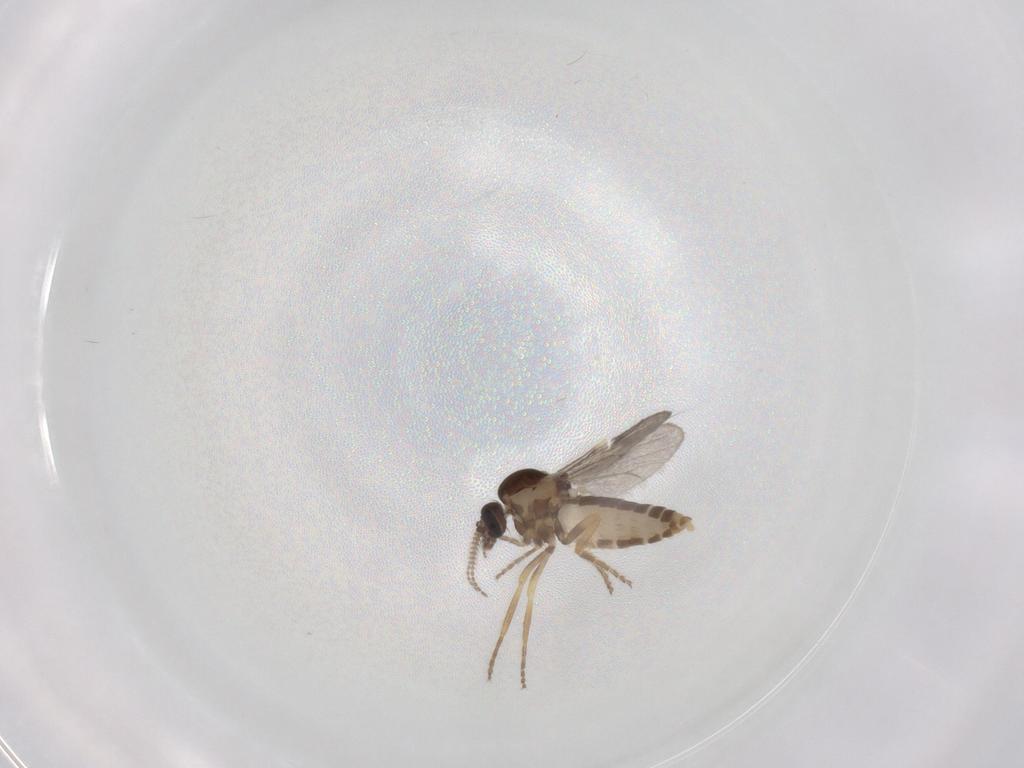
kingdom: Animalia
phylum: Arthropoda
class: Insecta
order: Diptera
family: Ceratopogonidae
